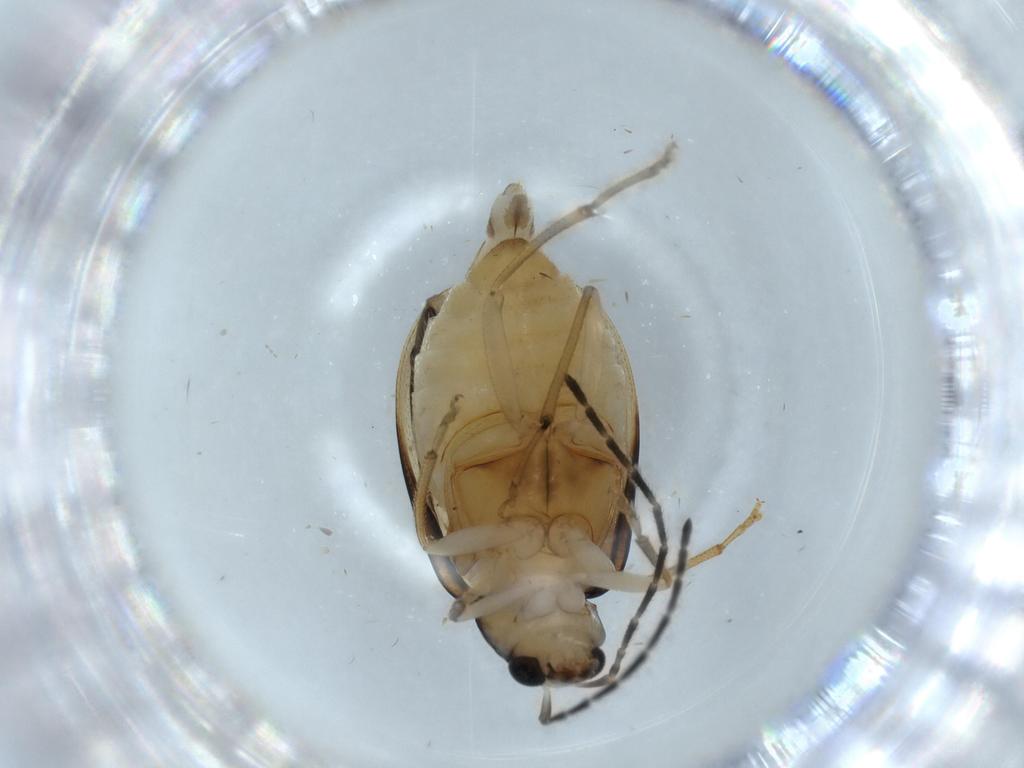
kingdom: Animalia
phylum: Arthropoda
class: Insecta
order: Coleoptera
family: Chrysomelidae
